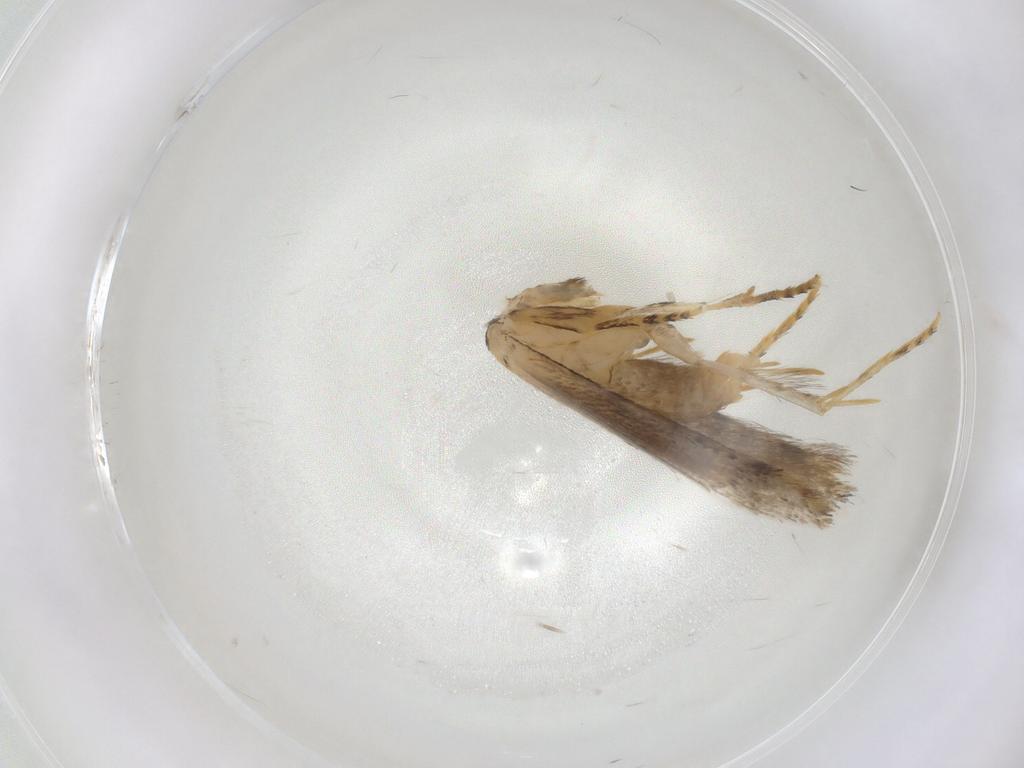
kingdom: Animalia
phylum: Arthropoda
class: Insecta
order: Lepidoptera
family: Tineidae
